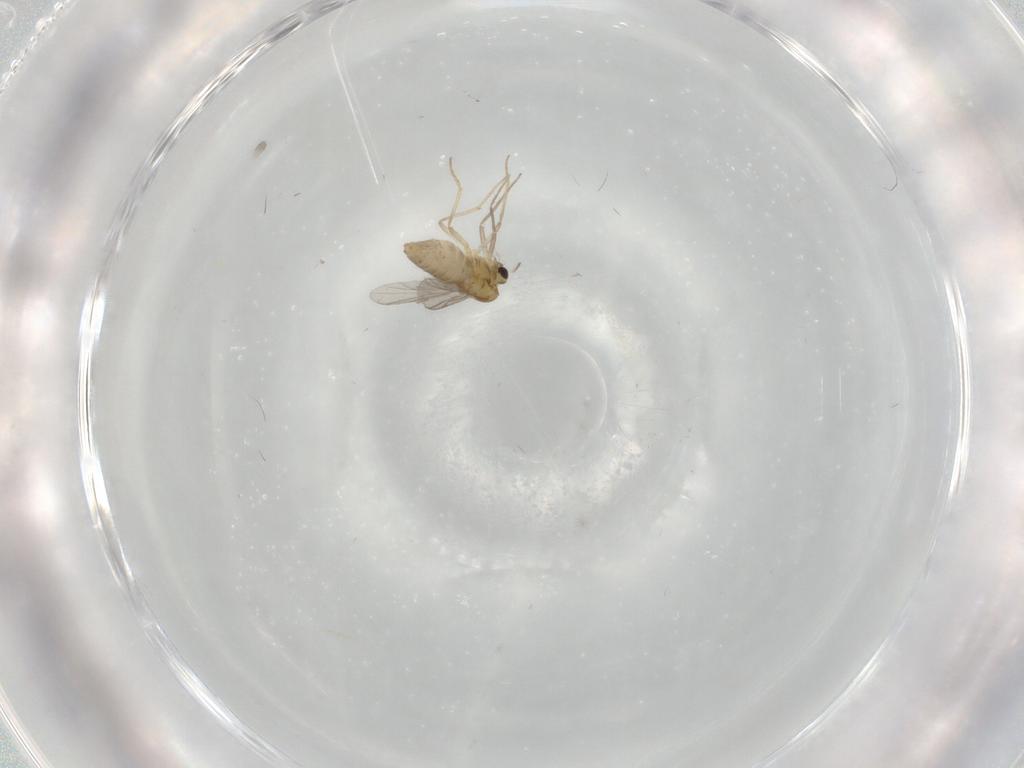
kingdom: Animalia
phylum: Arthropoda
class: Insecta
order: Diptera
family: Chironomidae
